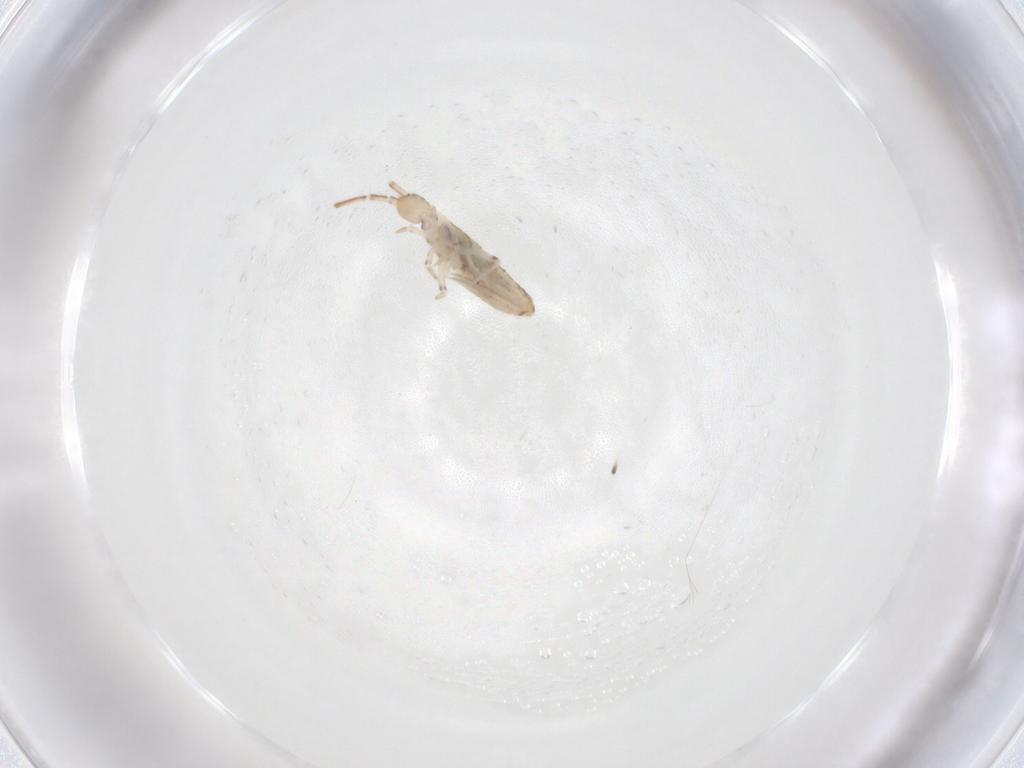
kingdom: Animalia
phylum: Arthropoda
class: Collembola
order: Entomobryomorpha
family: Entomobryidae
